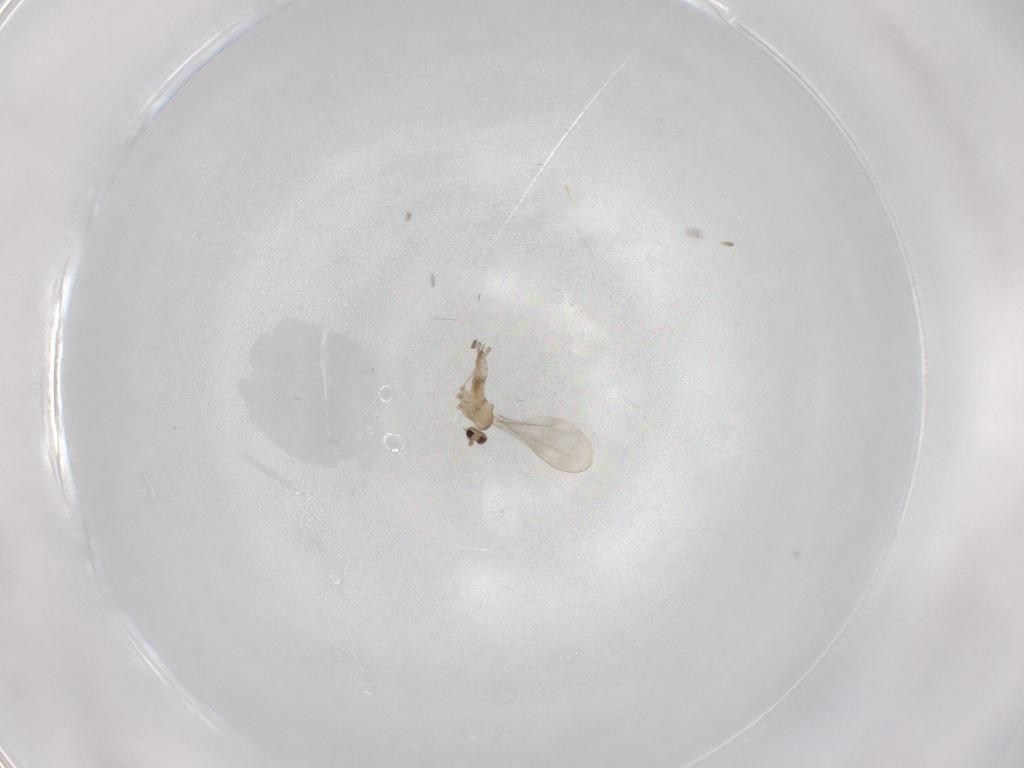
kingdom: Animalia
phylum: Arthropoda
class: Insecta
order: Diptera
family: Cecidomyiidae
